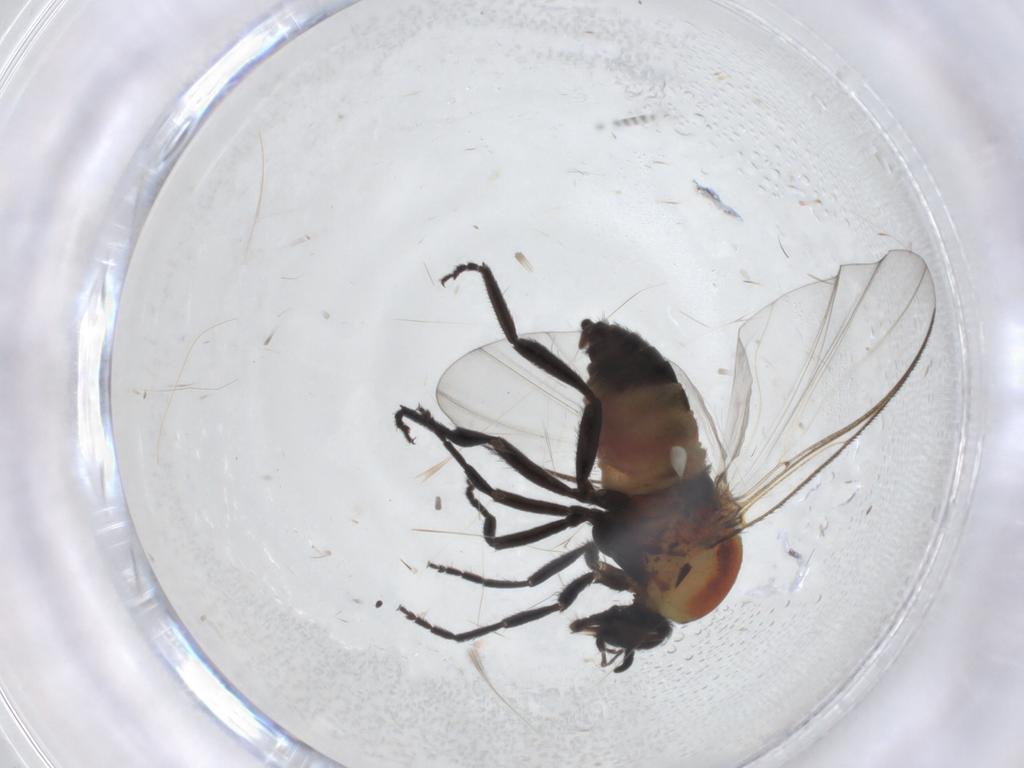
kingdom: Animalia
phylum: Arthropoda
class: Insecta
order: Diptera
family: Simuliidae
